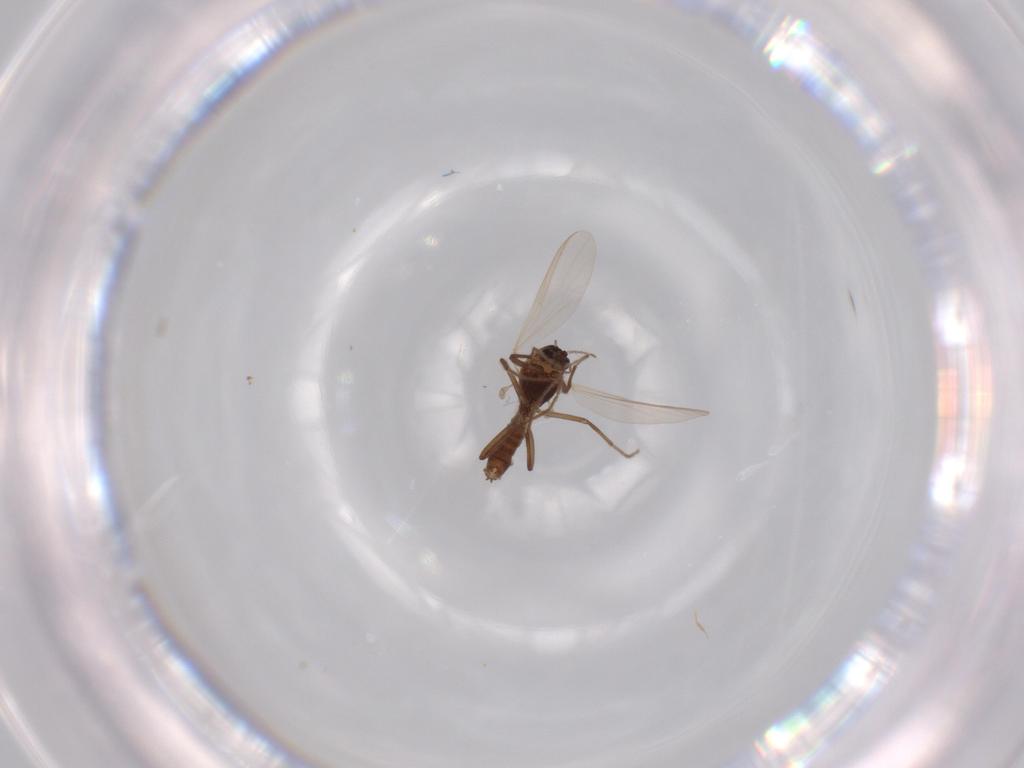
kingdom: Animalia
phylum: Arthropoda
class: Insecta
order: Diptera
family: Chironomidae
